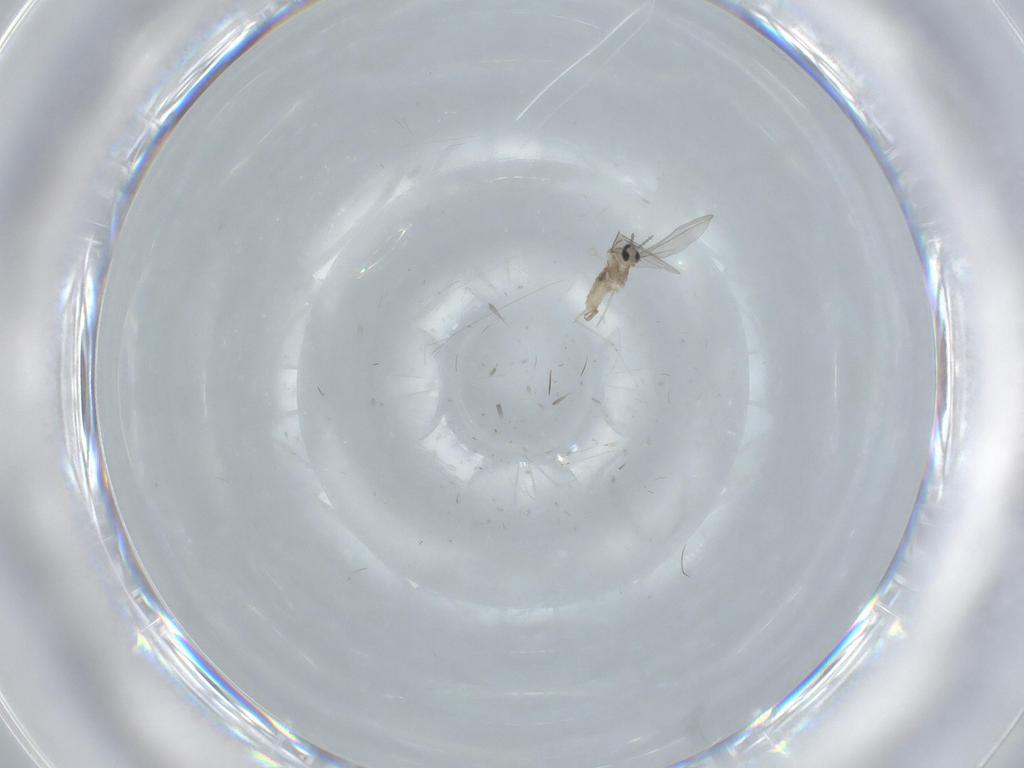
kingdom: Animalia
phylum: Arthropoda
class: Insecta
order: Diptera
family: Cecidomyiidae
